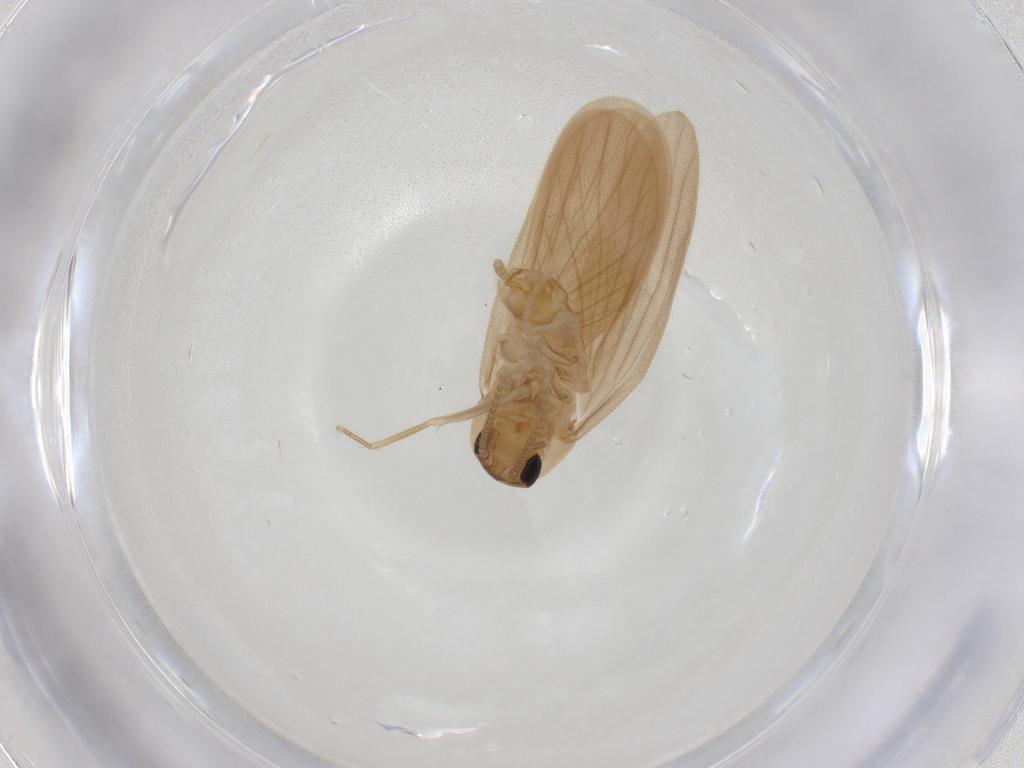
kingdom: Animalia
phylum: Arthropoda
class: Insecta
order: Blattodea
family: Nocticolidae
